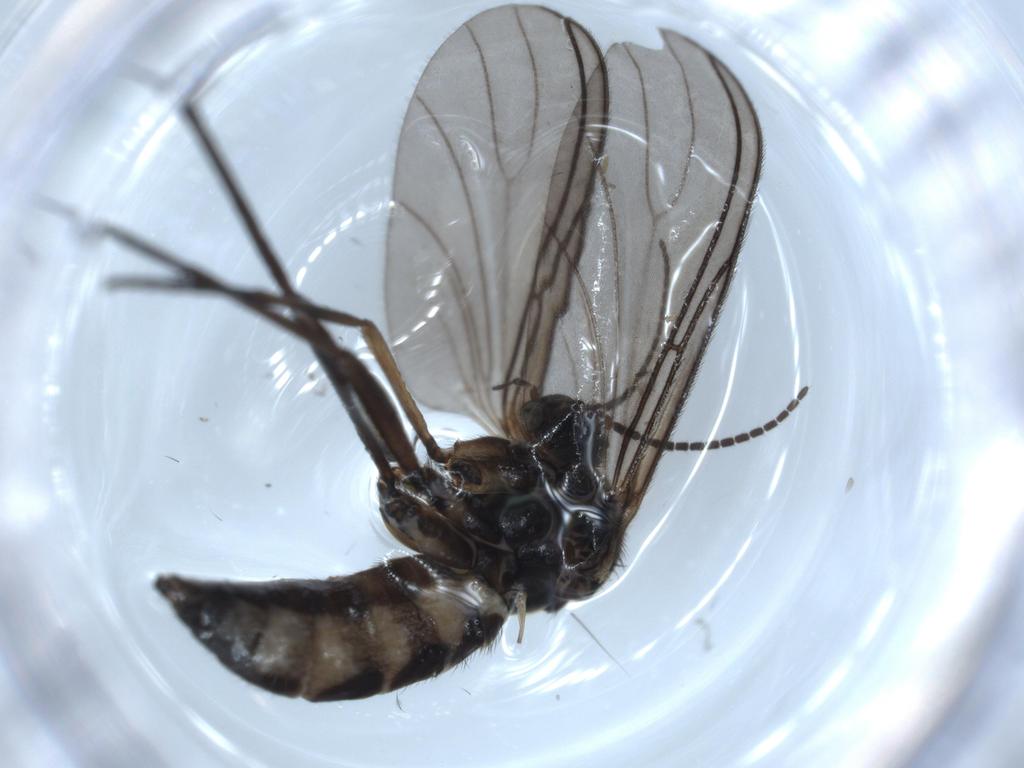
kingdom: Animalia
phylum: Arthropoda
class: Insecta
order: Diptera
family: Sciaridae
